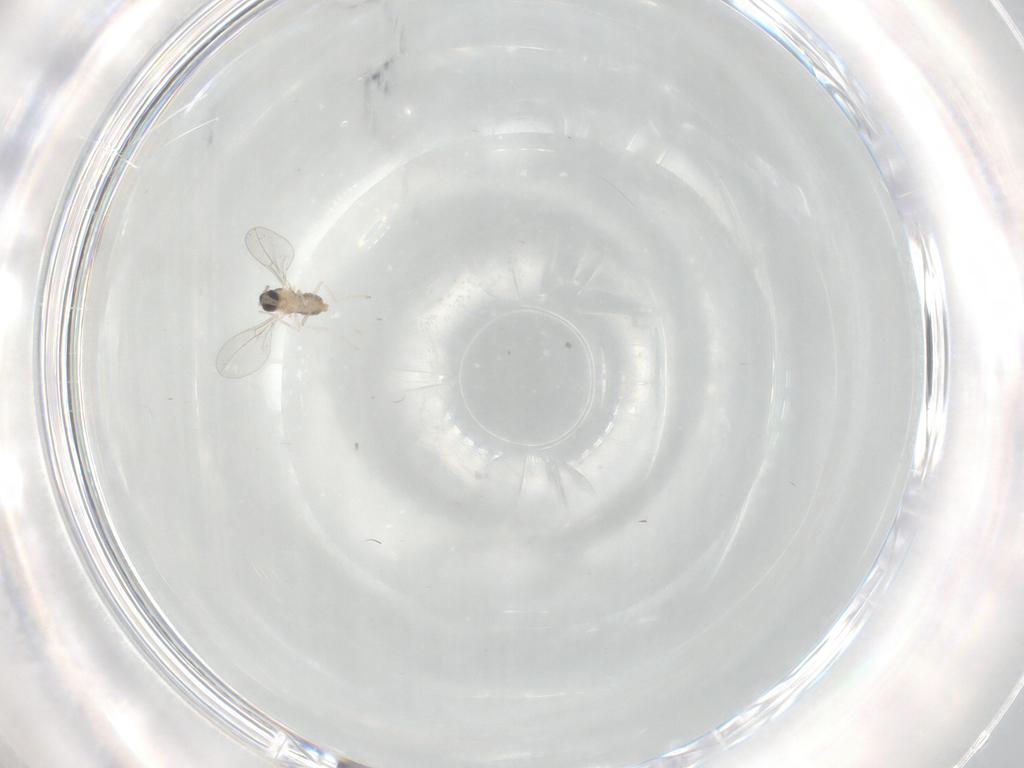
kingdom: Animalia
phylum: Arthropoda
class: Insecta
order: Diptera
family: Cecidomyiidae
